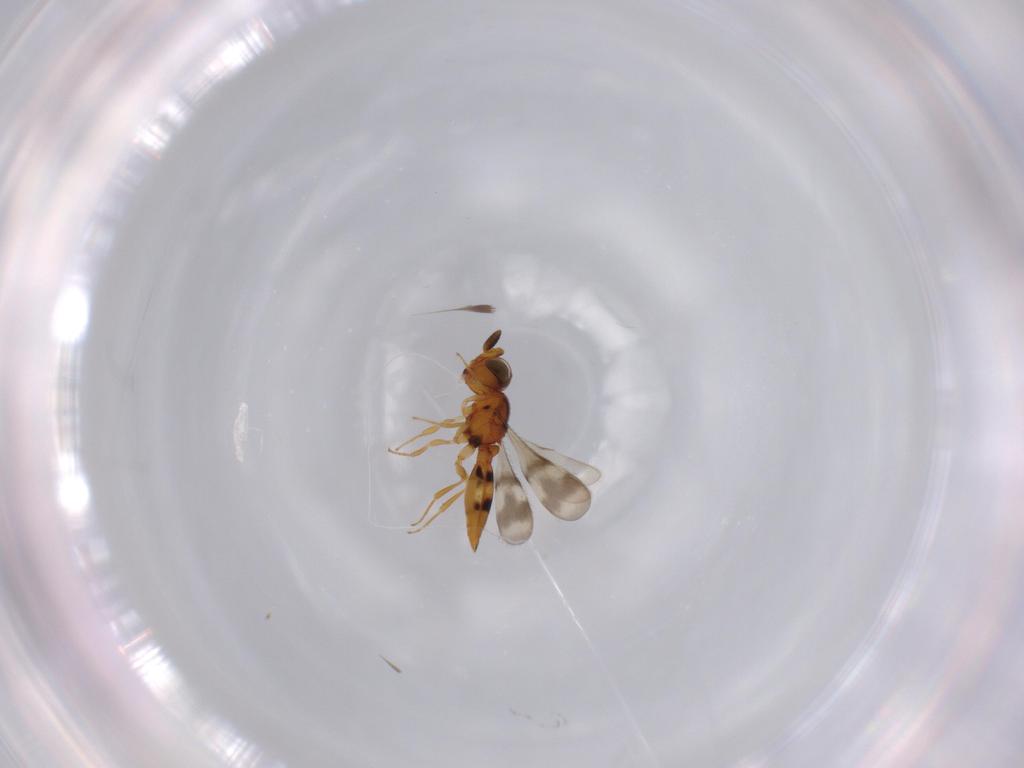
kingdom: Animalia
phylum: Arthropoda
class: Insecta
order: Hymenoptera
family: Scelionidae
